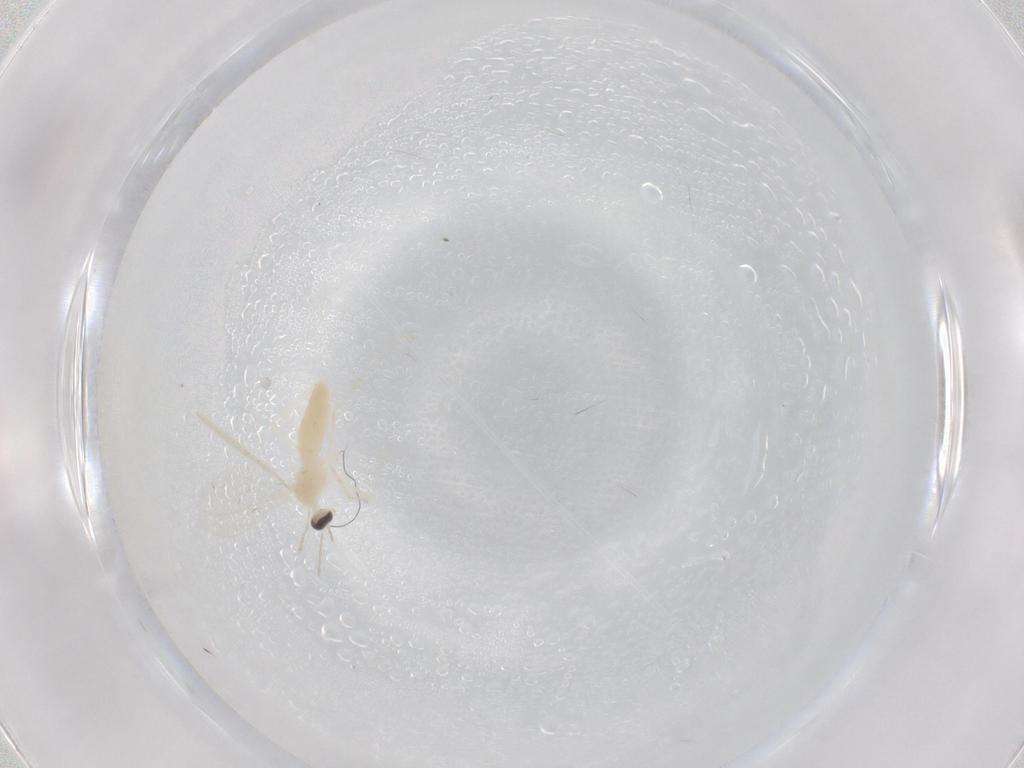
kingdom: Animalia
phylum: Arthropoda
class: Insecta
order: Diptera
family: Cecidomyiidae
